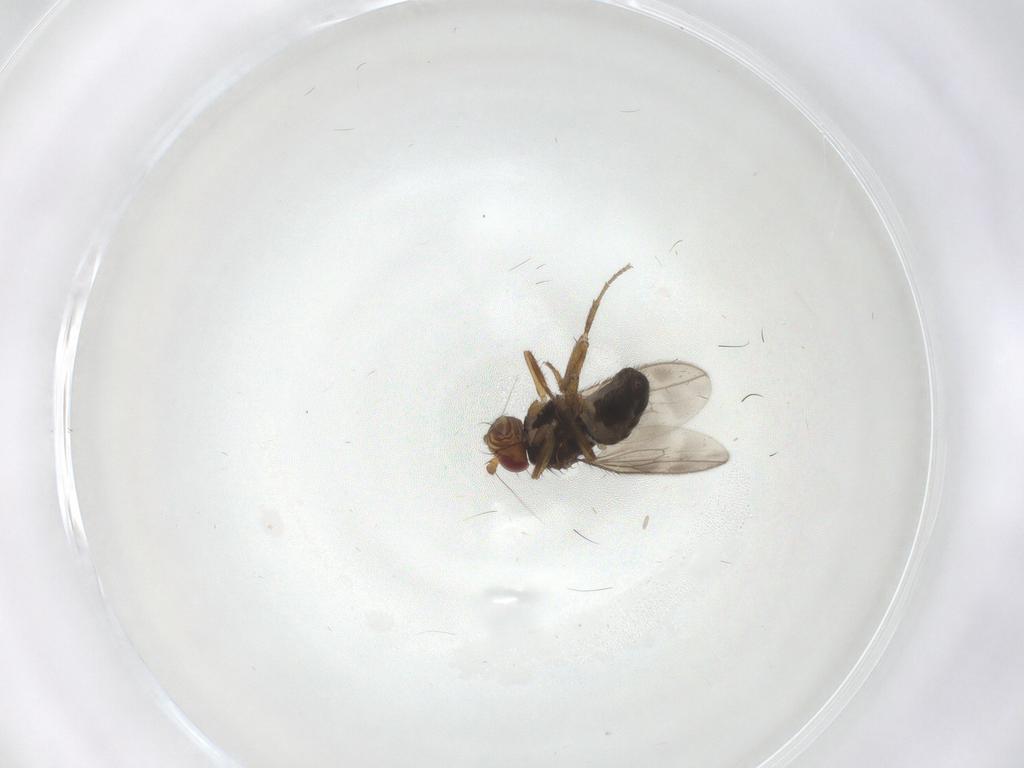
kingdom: Animalia
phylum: Arthropoda
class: Insecta
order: Diptera
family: Sphaeroceridae
